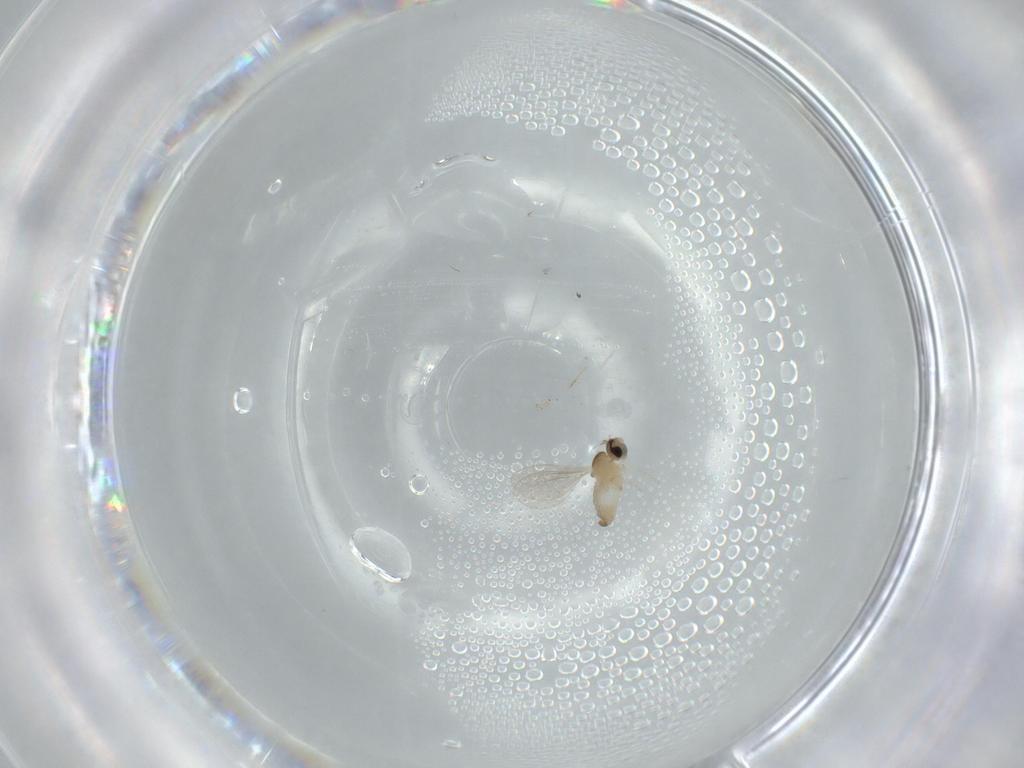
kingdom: Animalia
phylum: Arthropoda
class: Insecta
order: Diptera
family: Cecidomyiidae
